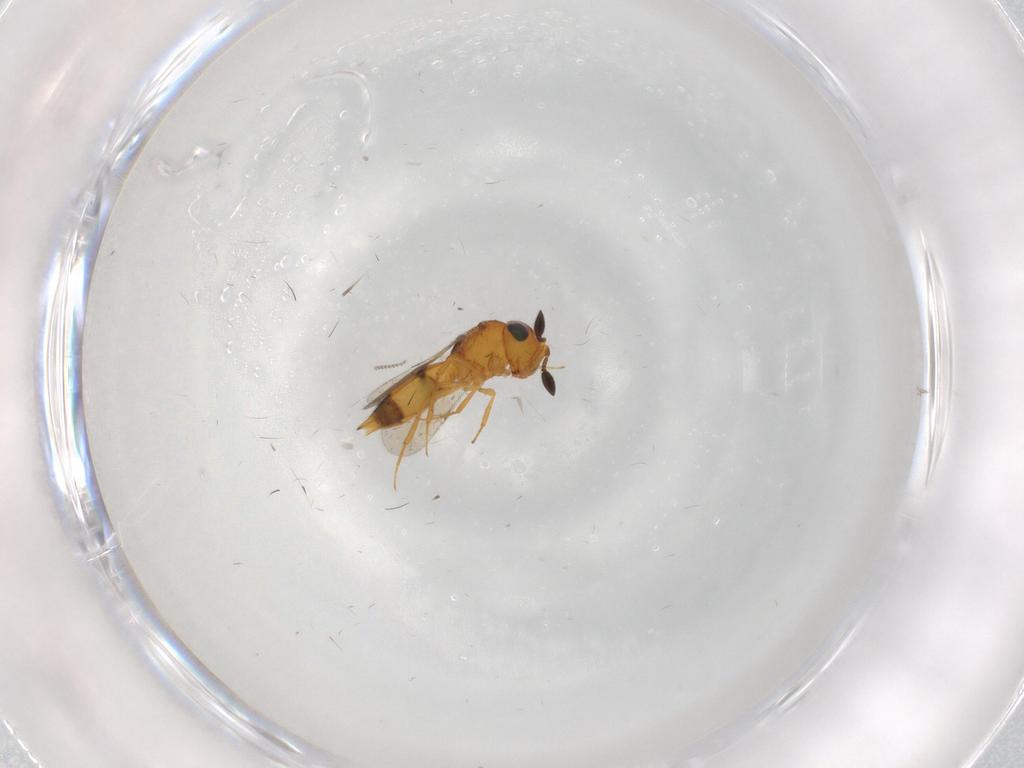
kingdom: Animalia
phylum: Arthropoda
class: Insecta
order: Hymenoptera
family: Scelionidae
